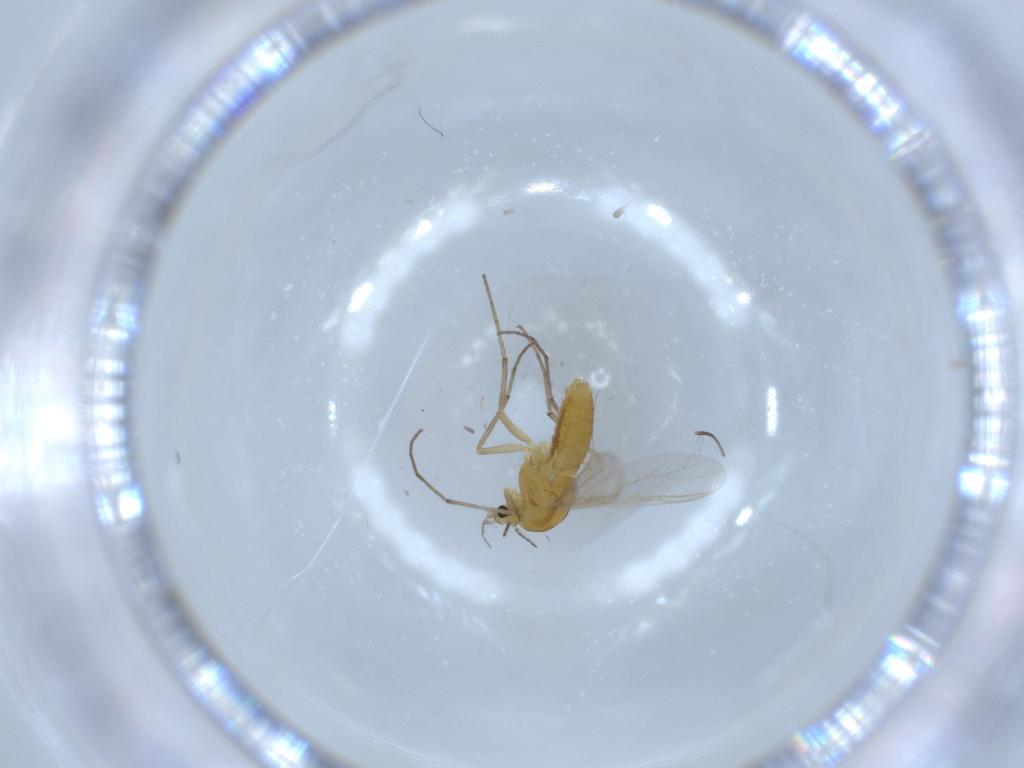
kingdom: Animalia
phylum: Arthropoda
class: Insecta
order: Diptera
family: Chironomidae
